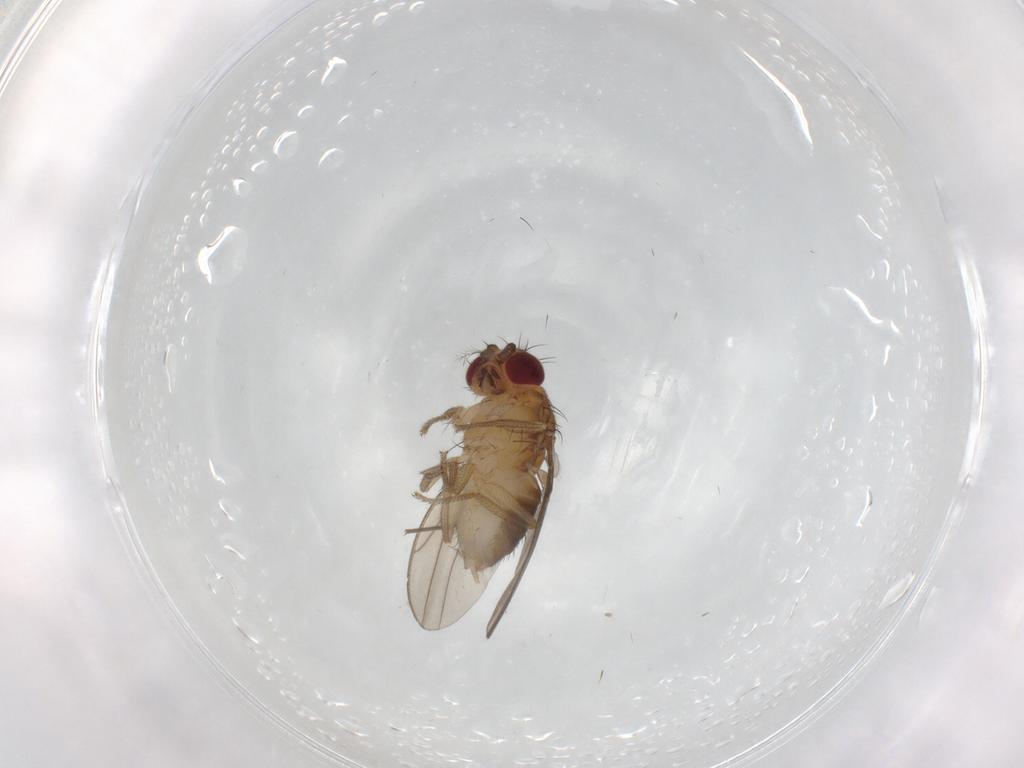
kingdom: Animalia
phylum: Arthropoda
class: Insecta
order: Diptera
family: Drosophilidae
